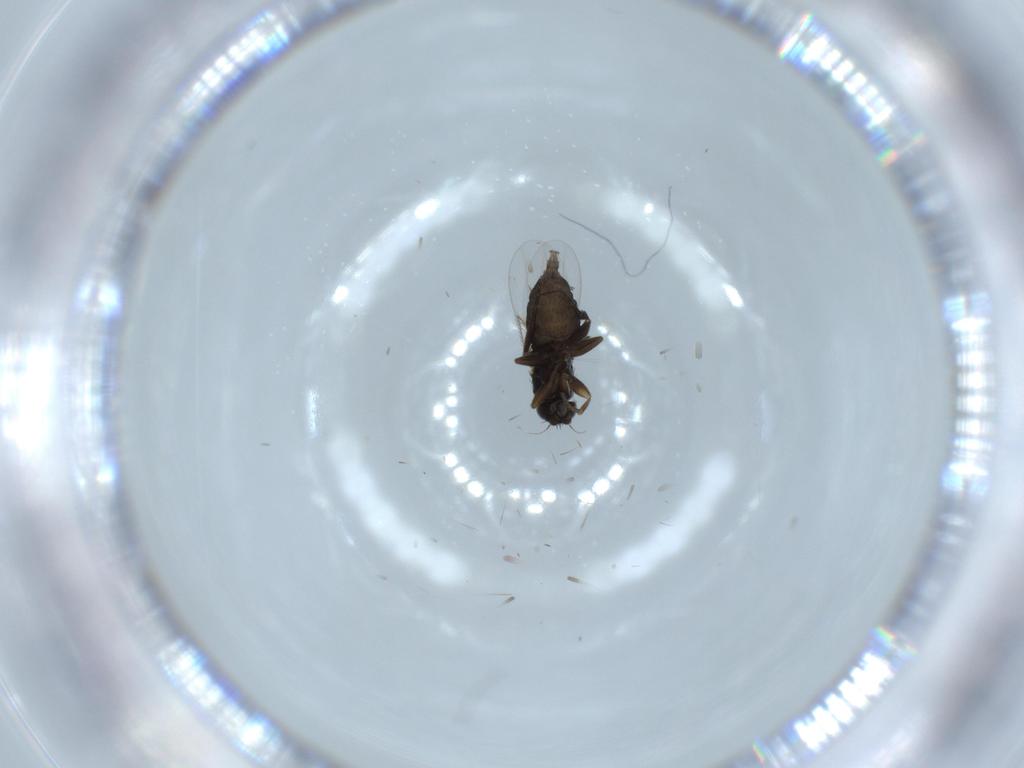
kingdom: Animalia
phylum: Arthropoda
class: Insecta
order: Diptera
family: Phoridae
